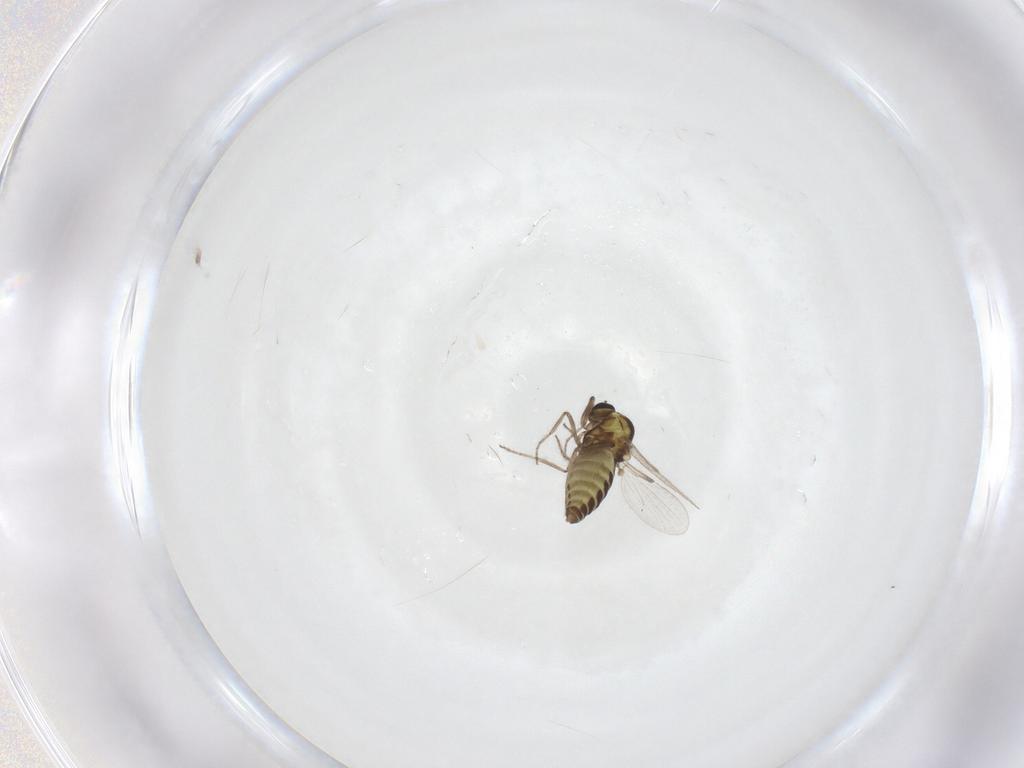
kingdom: Animalia
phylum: Arthropoda
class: Insecta
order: Diptera
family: Ceratopogonidae
